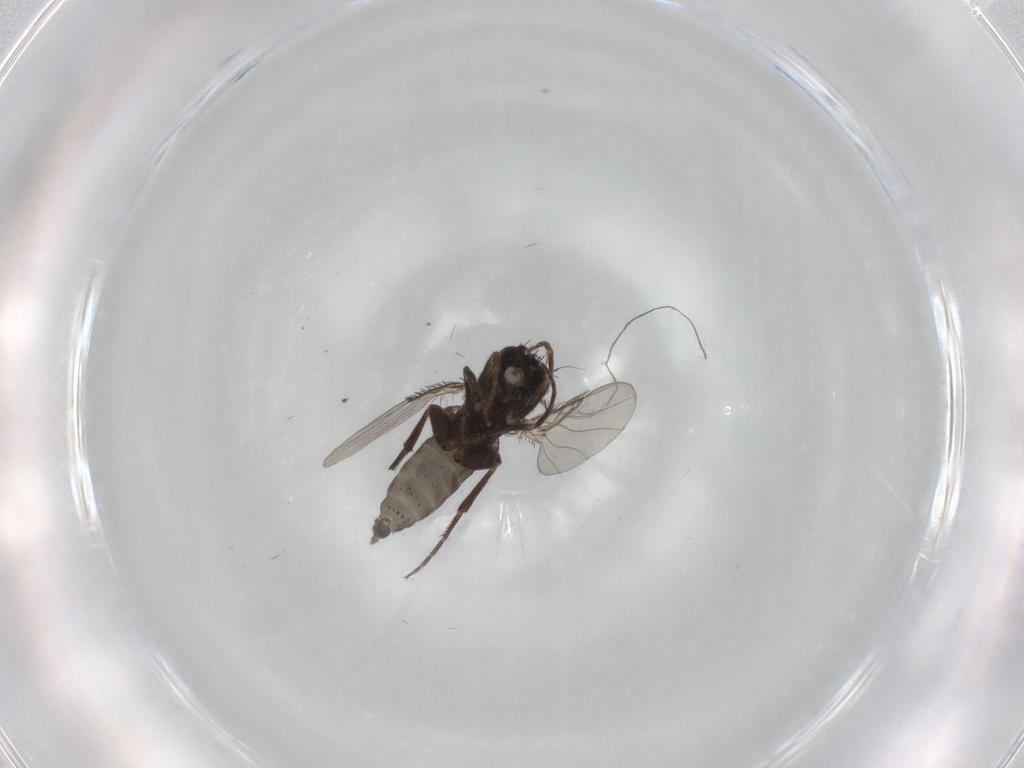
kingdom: Animalia
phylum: Arthropoda
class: Insecta
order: Diptera
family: Phoridae
